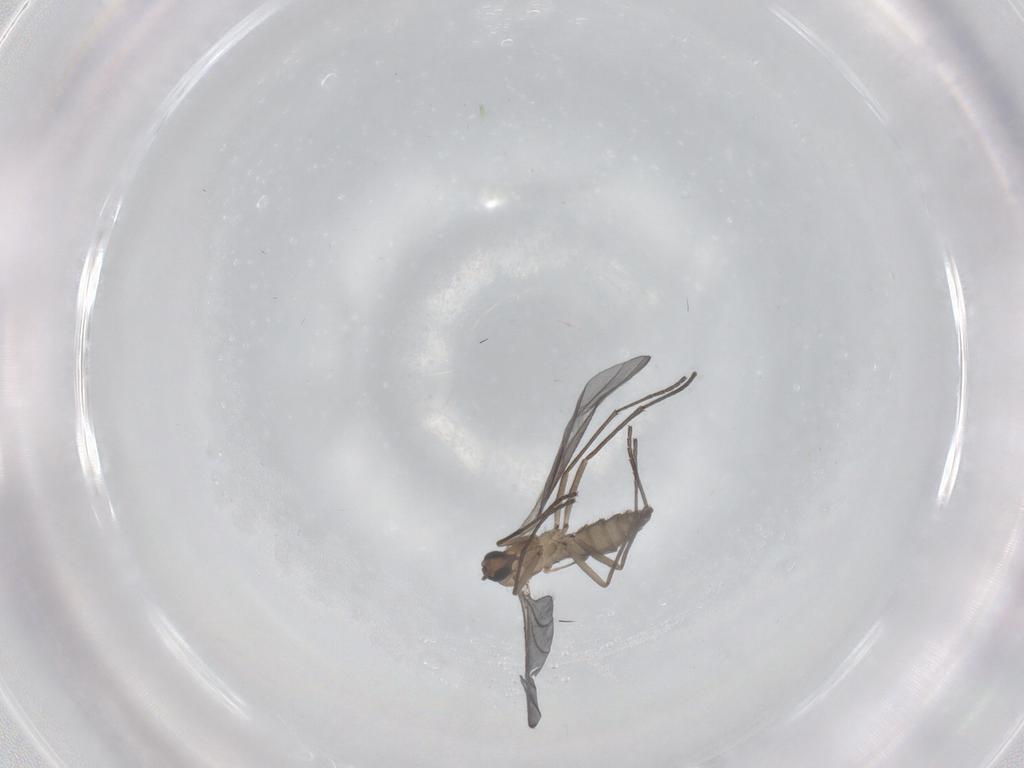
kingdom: Animalia
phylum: Arthropoda
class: Insecta
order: Diptera
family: Sciaridae
